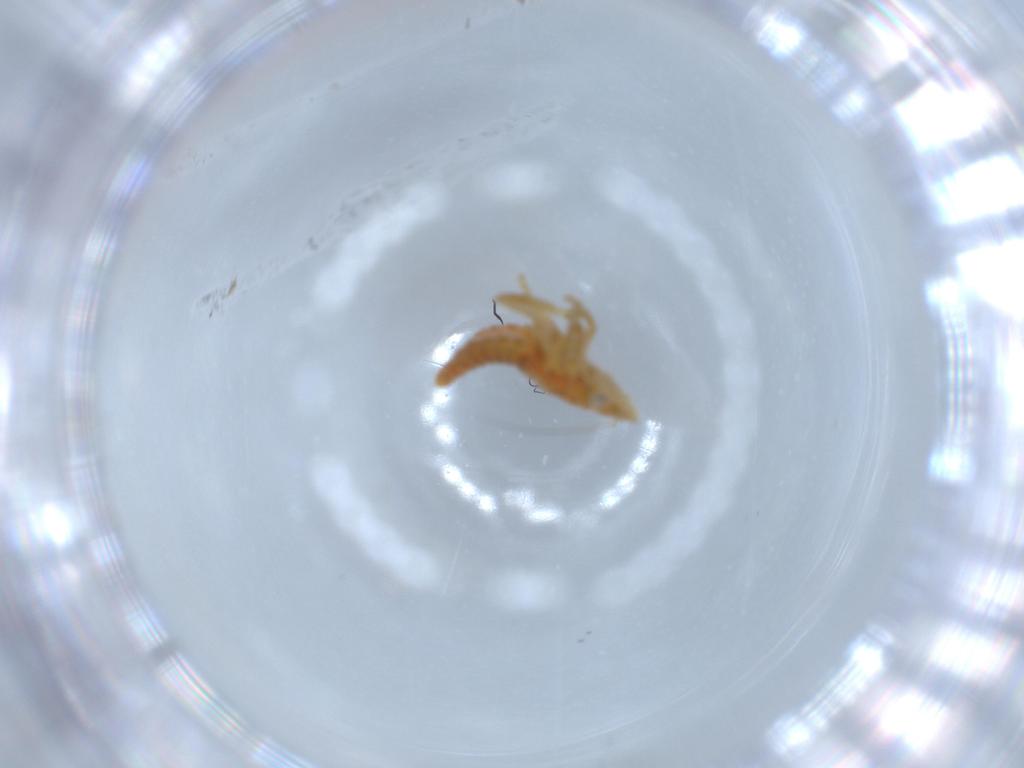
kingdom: Animalia
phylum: Arthropoda
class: Insecta
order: Hemiptera
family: Cicadellidae
